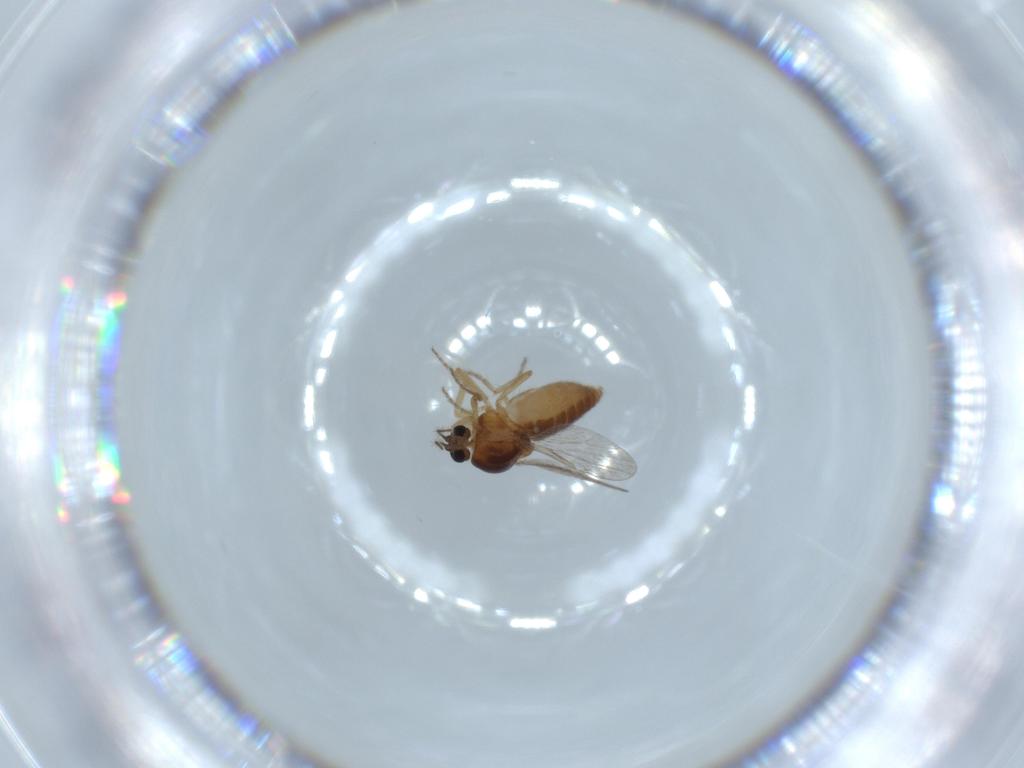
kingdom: Animalia
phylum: Arthropoda
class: Insecta
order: Diptera
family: Ceratopogonidae
